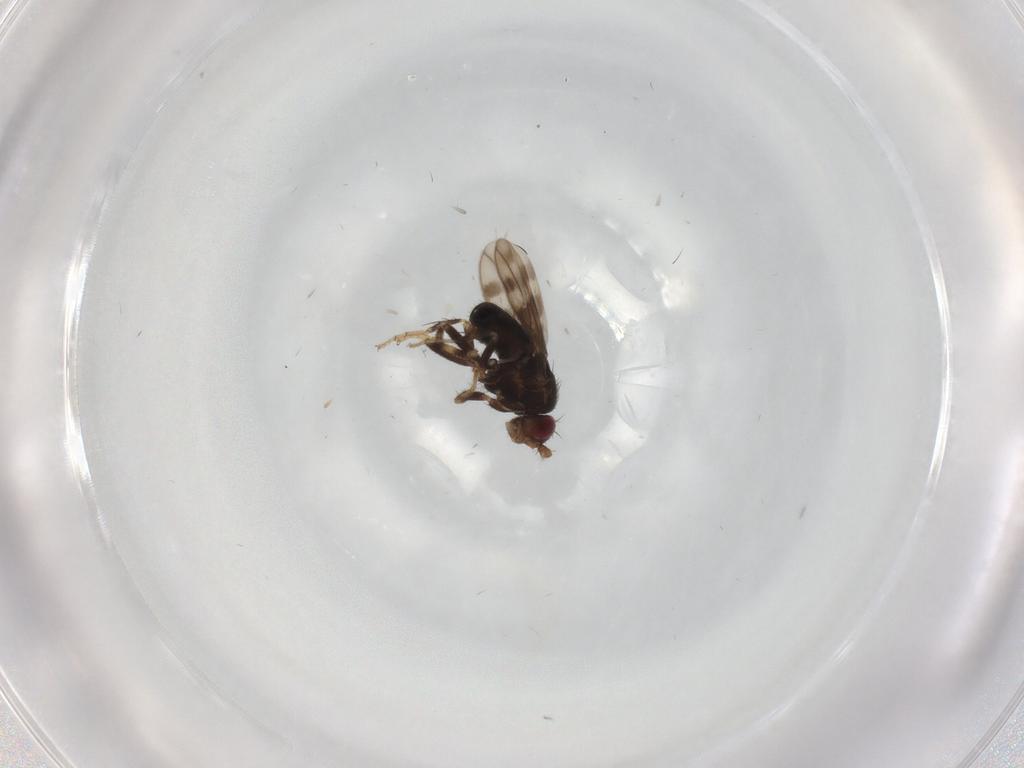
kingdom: Animalia
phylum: Arthropoda
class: Insecta
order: Diptera
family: Sphaeroceridae
